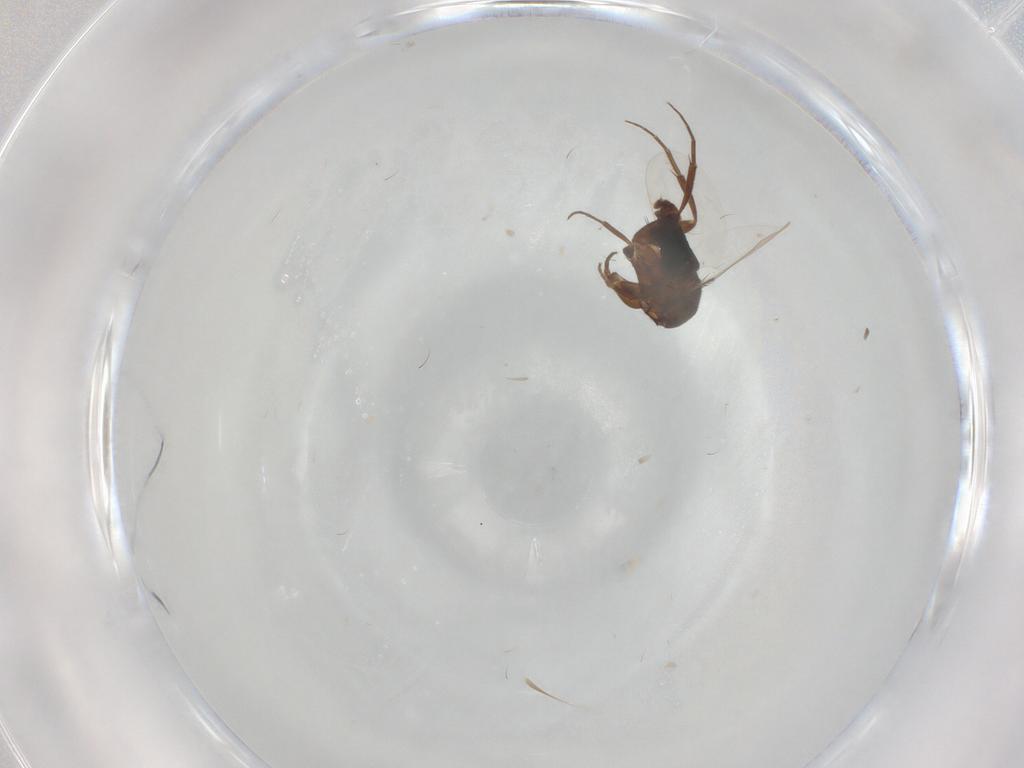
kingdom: Animalia
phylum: Arthropoda
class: Insecta
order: Diptera
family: Phoridae
